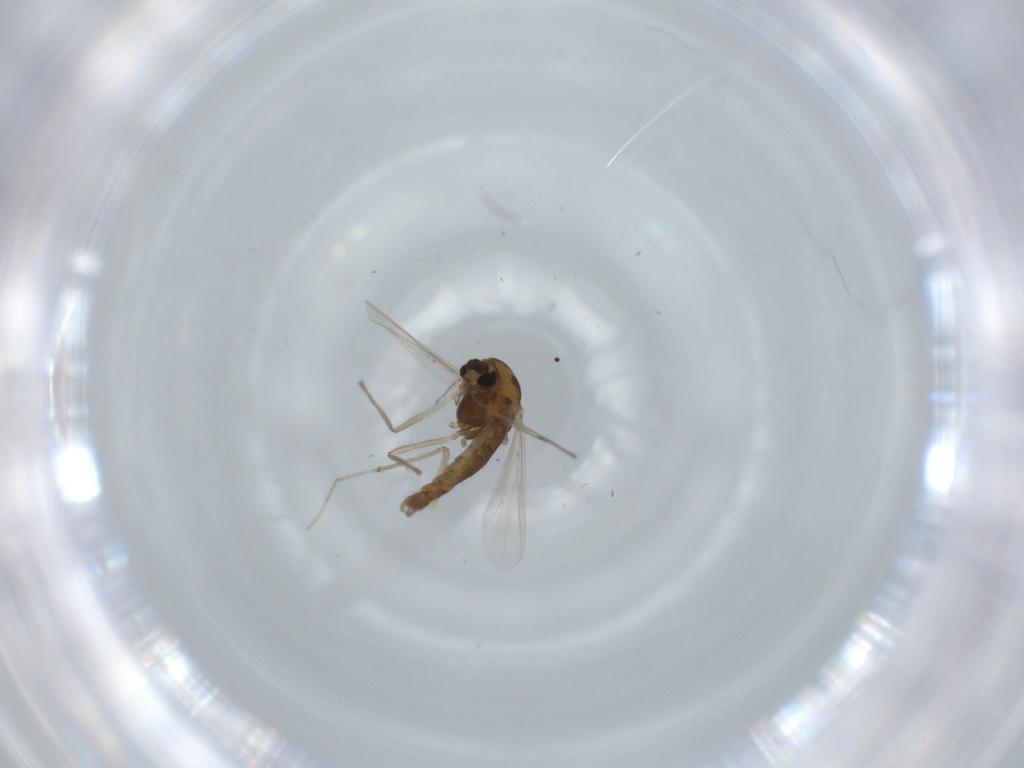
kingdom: Animalia
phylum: Arthropoda
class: Insecta
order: Diptera
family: Chironomidae
